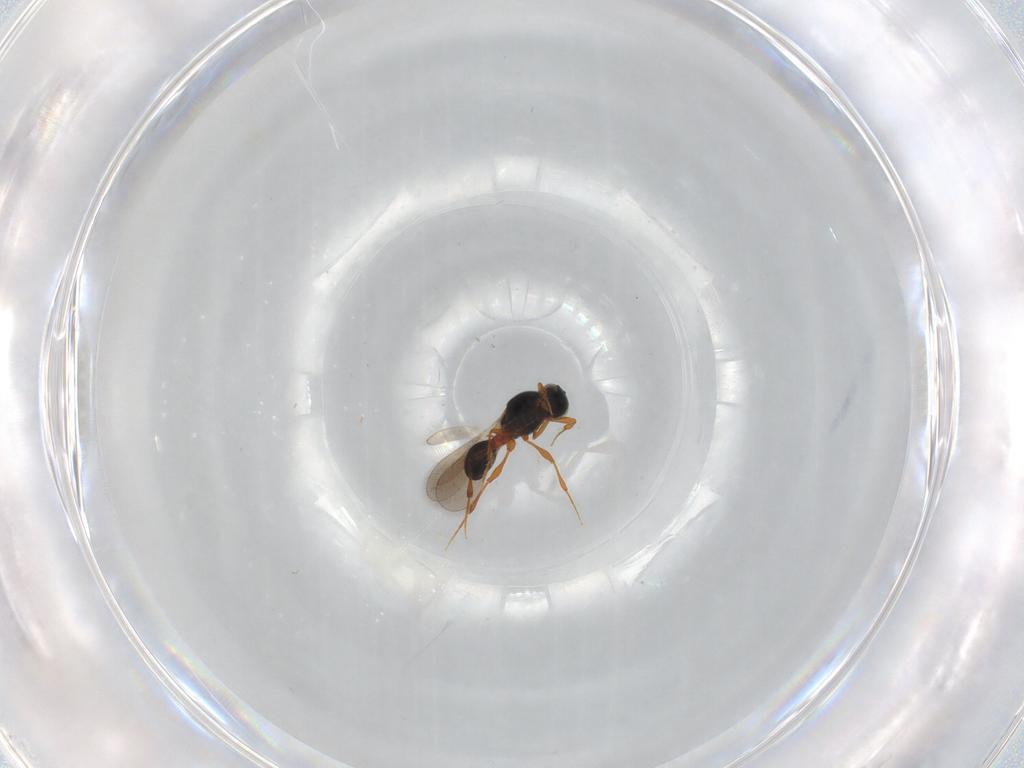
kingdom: Animalia
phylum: Arthropoda
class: Insecta
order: Hymenoptera
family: Platygastridae
